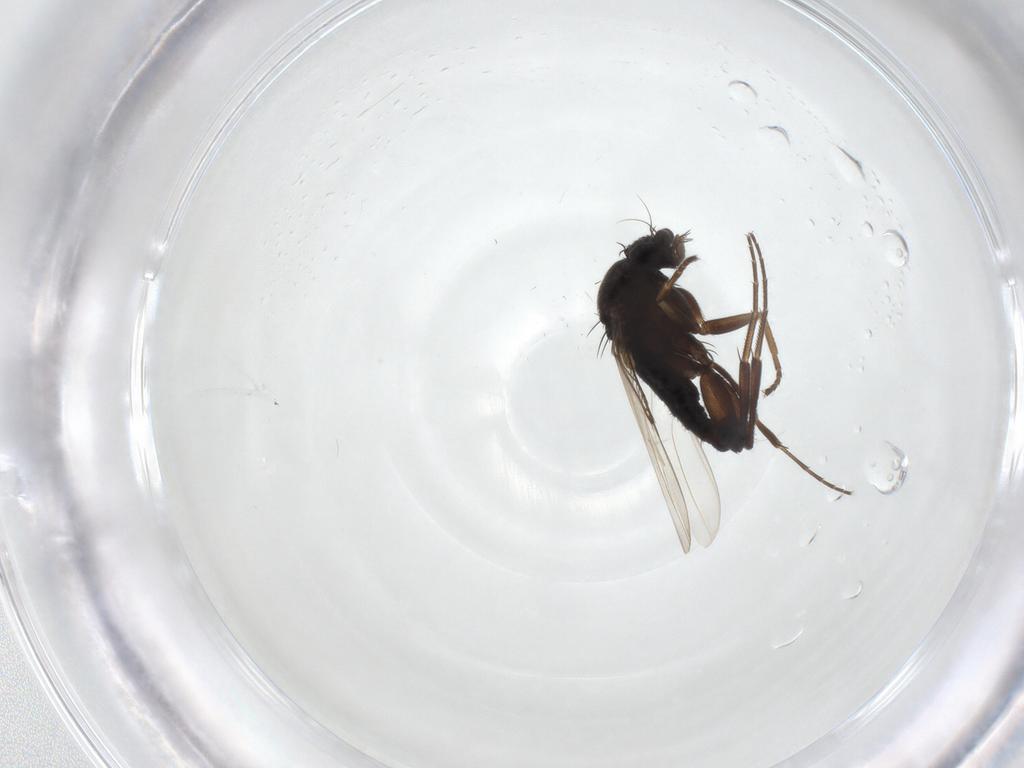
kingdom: Animalia
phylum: Arthropoda
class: Insecta
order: Diptera
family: Phoridae
